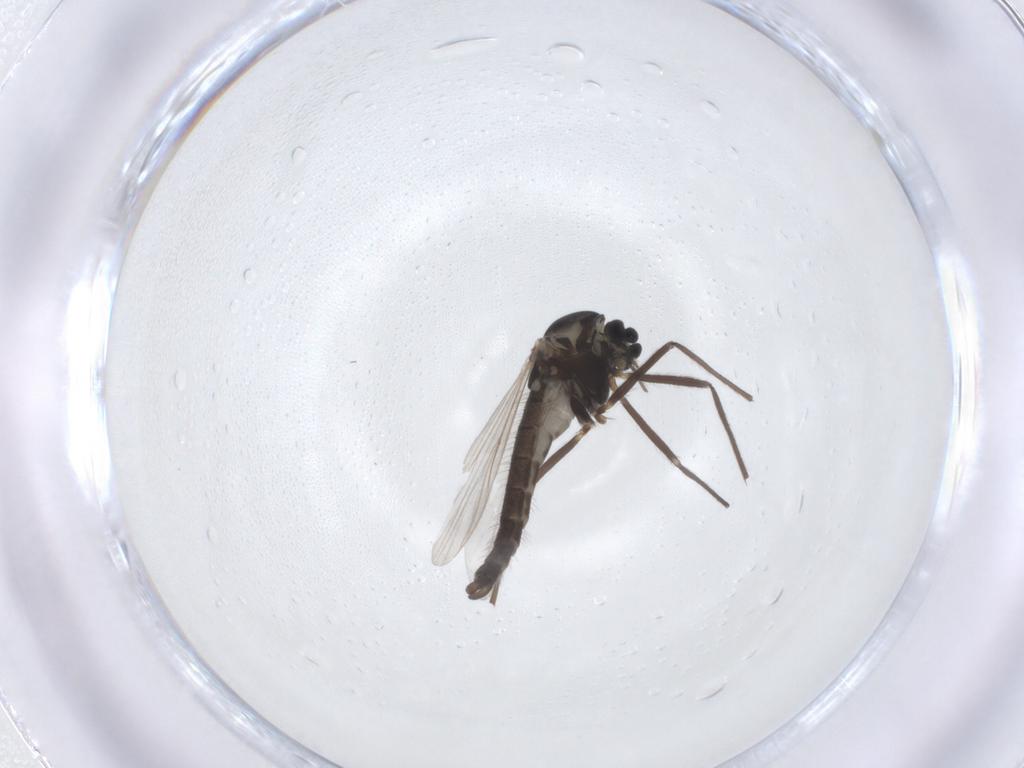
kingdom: Animalia
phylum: Arthropoda
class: Insecta
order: Diptera
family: Chironomidae
